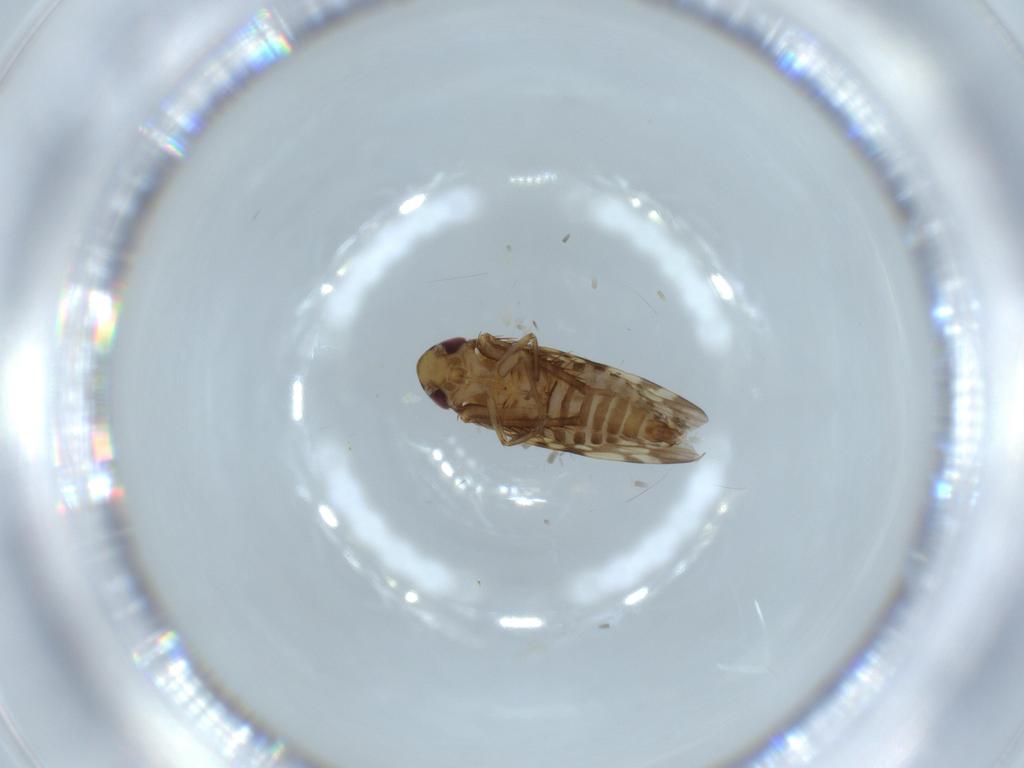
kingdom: Animalia
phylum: Arthropoda
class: Insecta
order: Hemiptera
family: Cicadellidae
